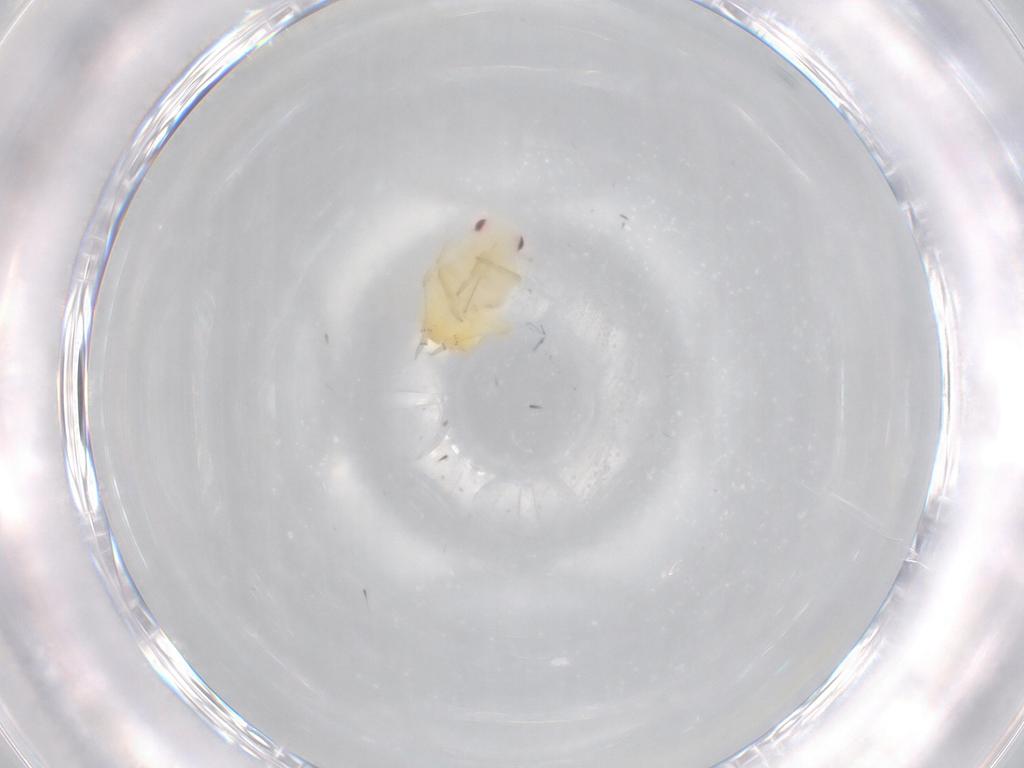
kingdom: Animalia
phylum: Arthropoda
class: Insecta
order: Hemiptera
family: Flatidae
